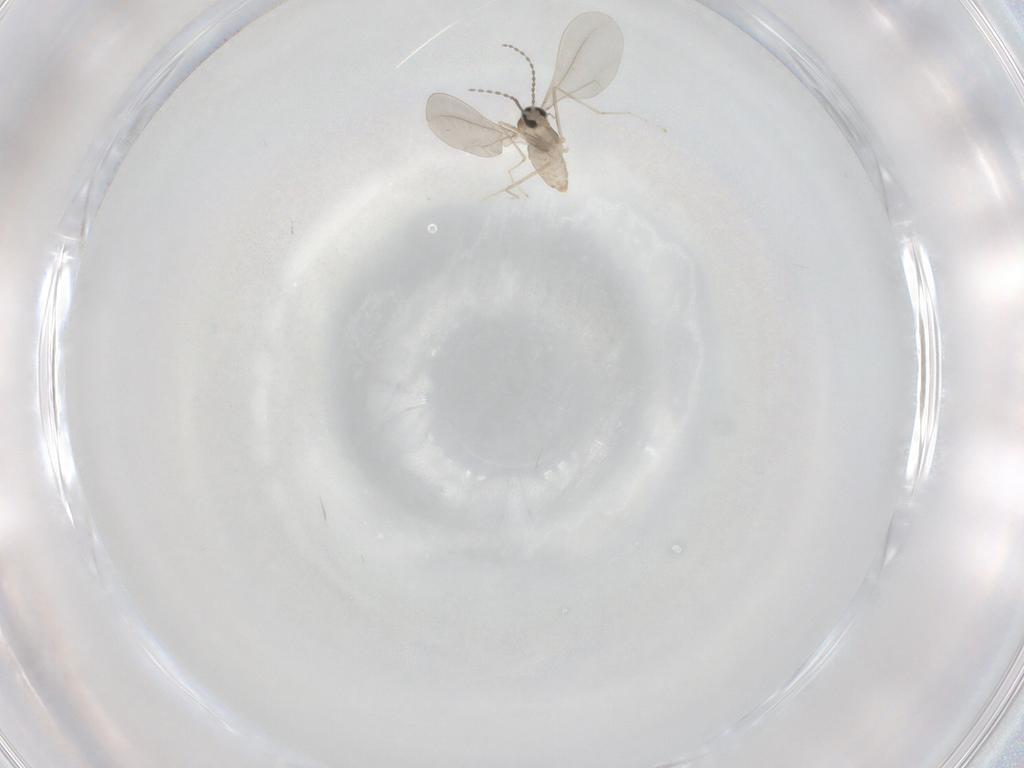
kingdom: Animalia
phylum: Arthropoda
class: Insecta
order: Diptera
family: Cecidomyiidae
